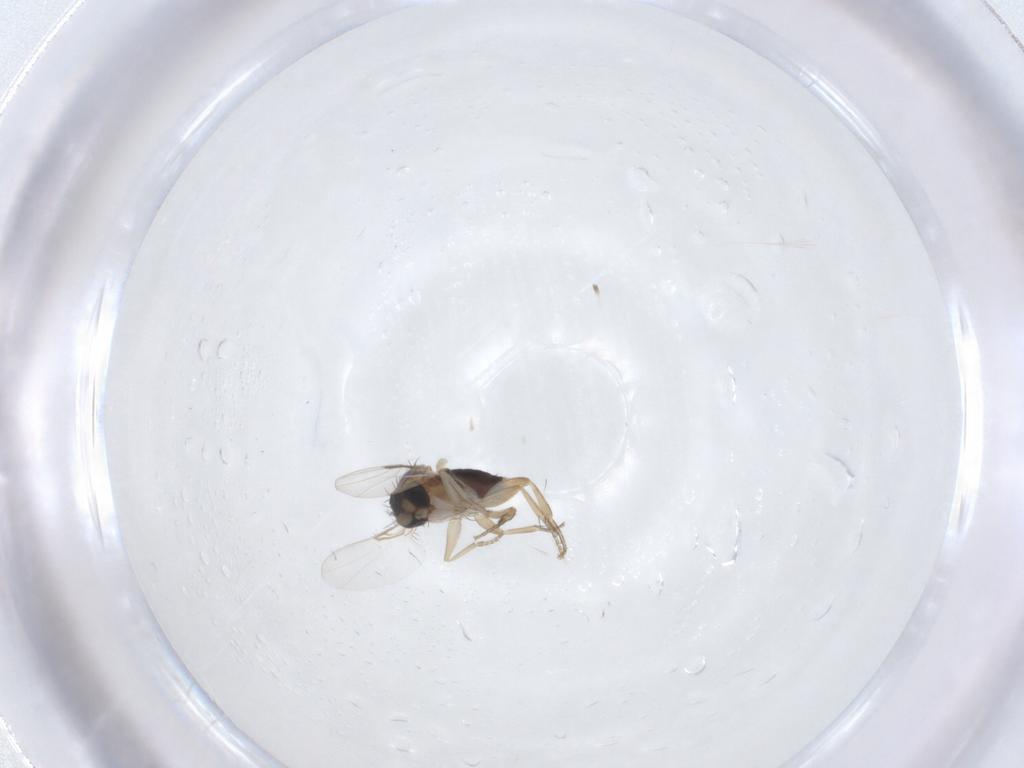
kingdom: Animalia
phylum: Arthropoda
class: Insecta
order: Diptera
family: Phoridae
